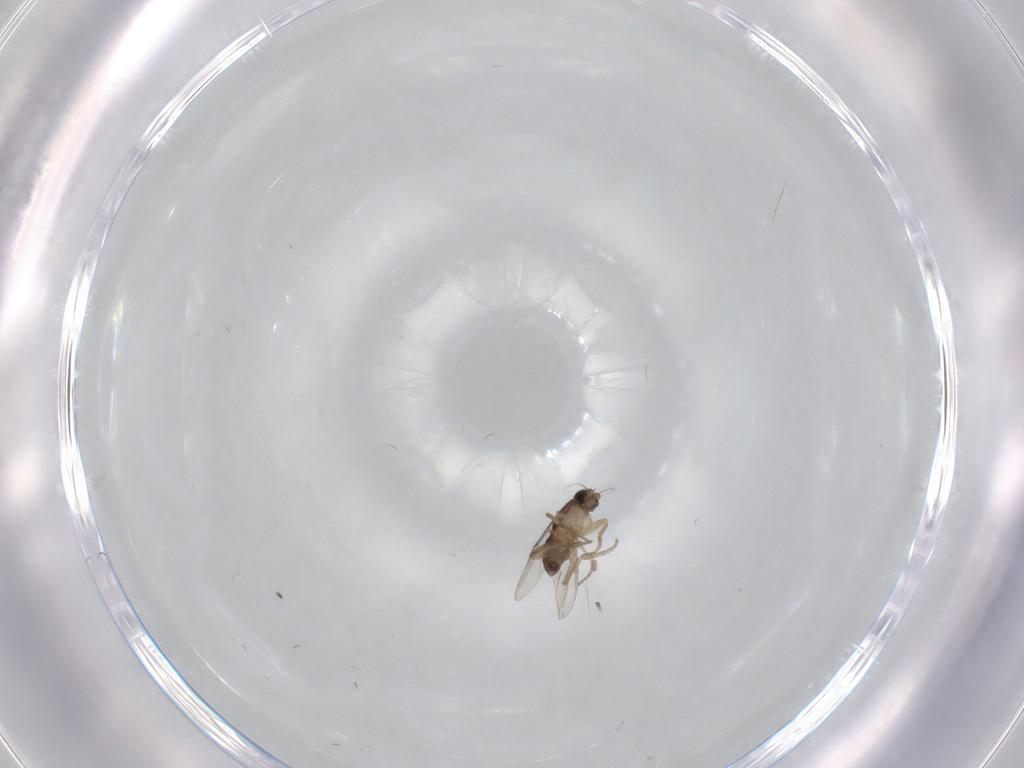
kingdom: Animalia
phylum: Arthropoda
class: Insecta
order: Diptera
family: Phoridae
